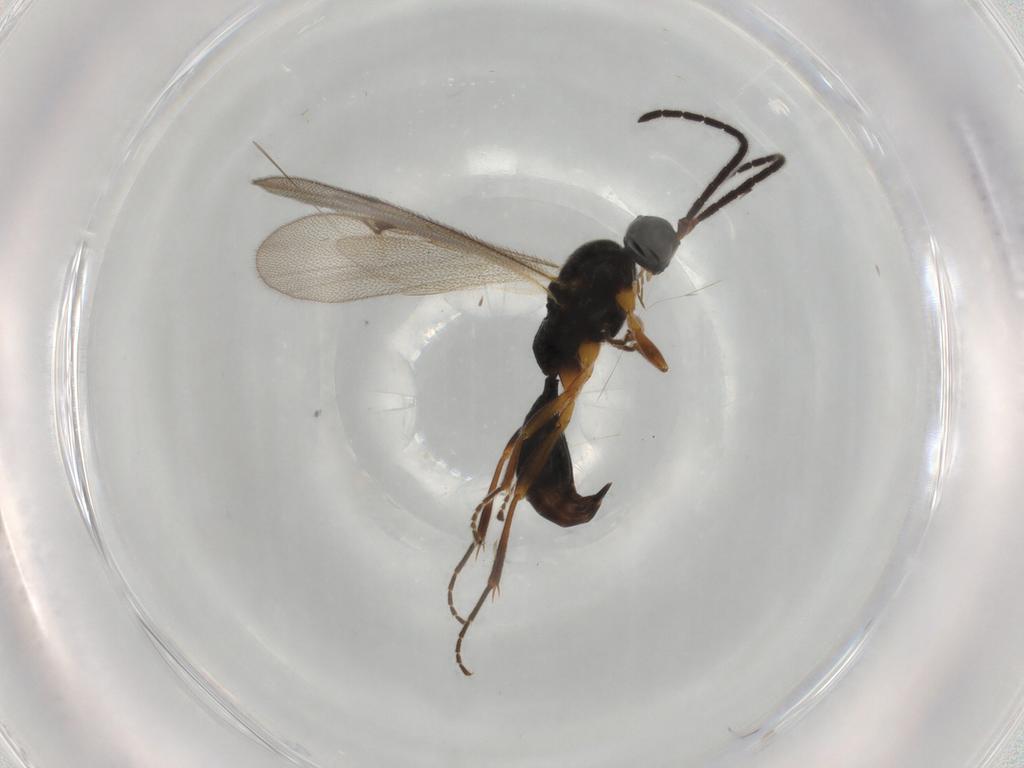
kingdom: Animalia
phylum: Arthropoda
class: Insecta
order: Hymenoptera
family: Proctotrupidae
